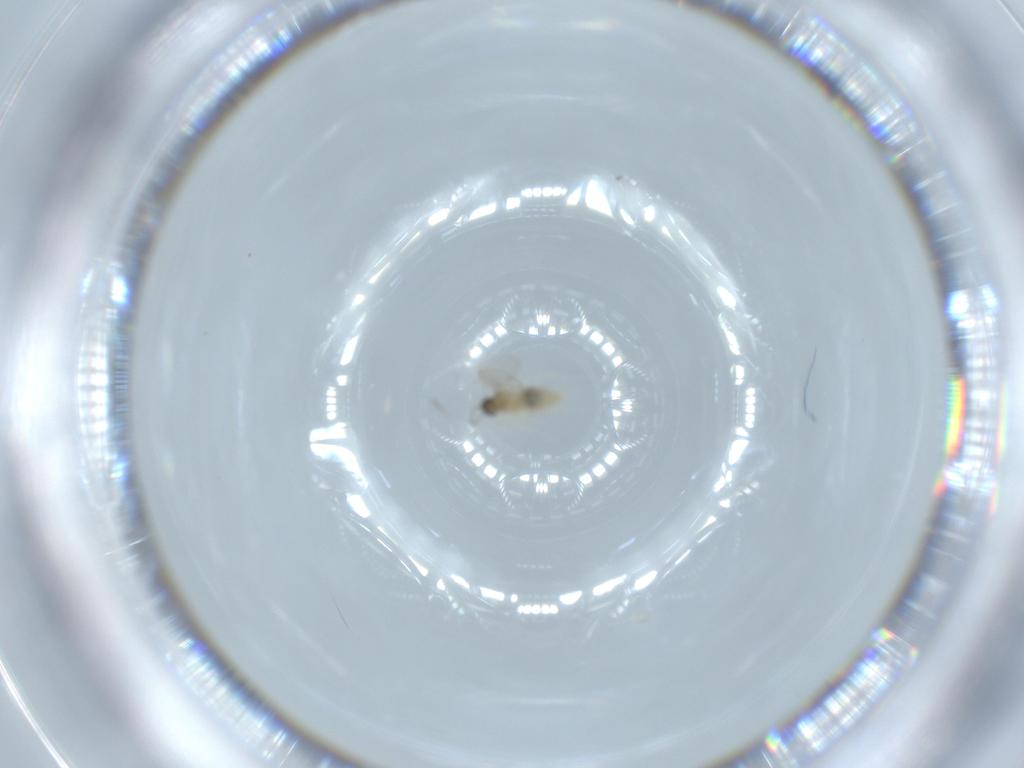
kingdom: Animalia
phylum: Arthropoda
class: Insecta
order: Diptera
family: Cecidomyiidae
